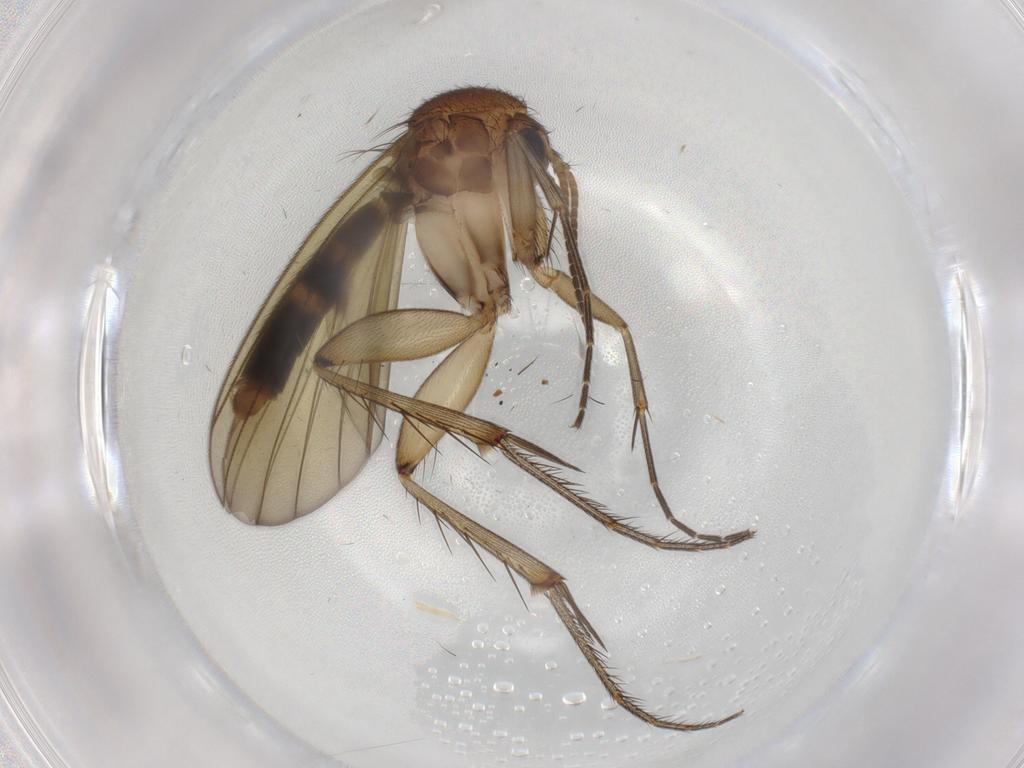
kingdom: Animalia
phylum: Arthropoda
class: Insecta
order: Diptera
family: Mycetophilidae
